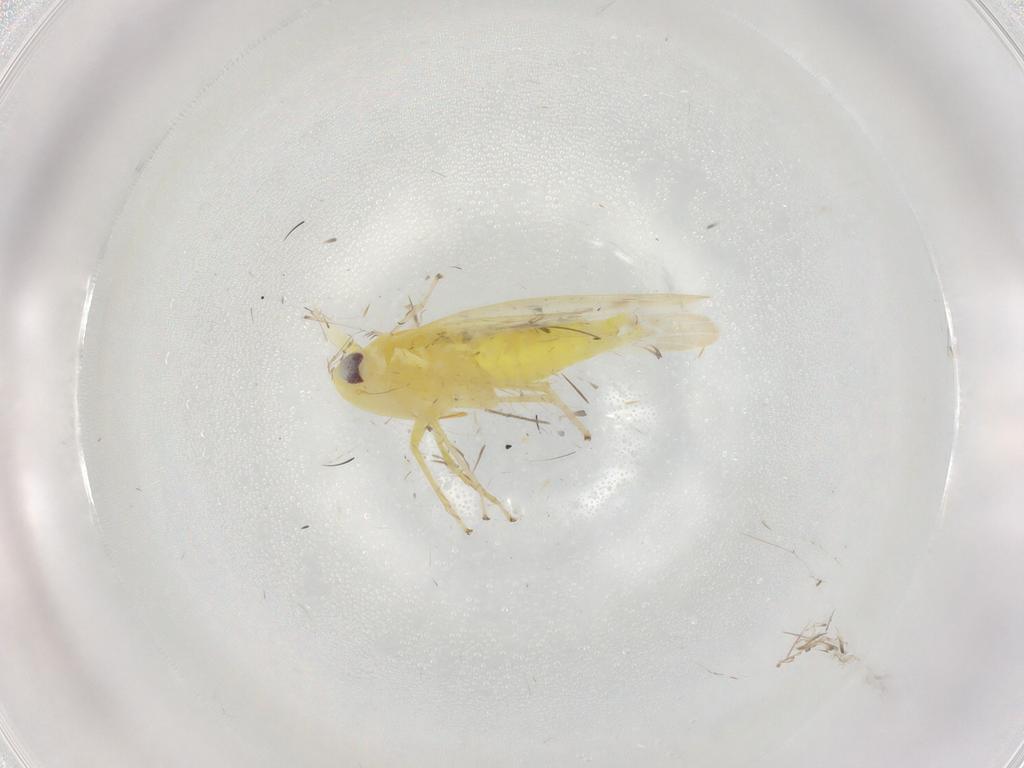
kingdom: Animalia
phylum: Arthropoda
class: Insecta
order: Hemiptera
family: Cicadellidae
